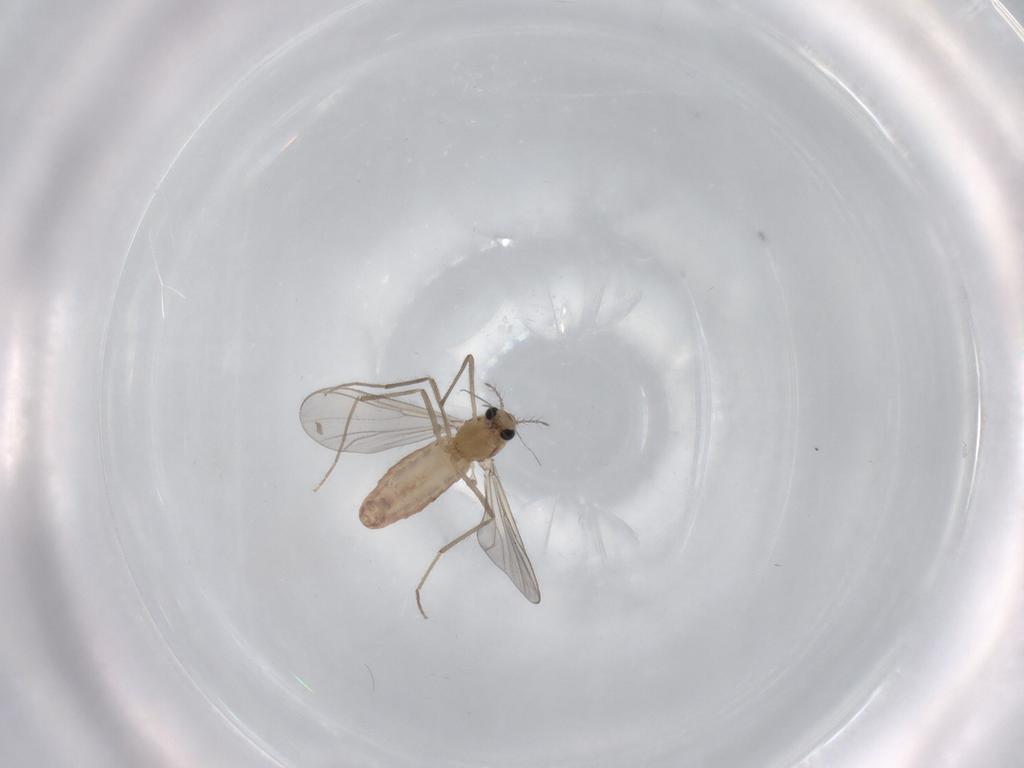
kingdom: Animalia
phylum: Arthropoda
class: Insecta
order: Diptera
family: Chironomidae
